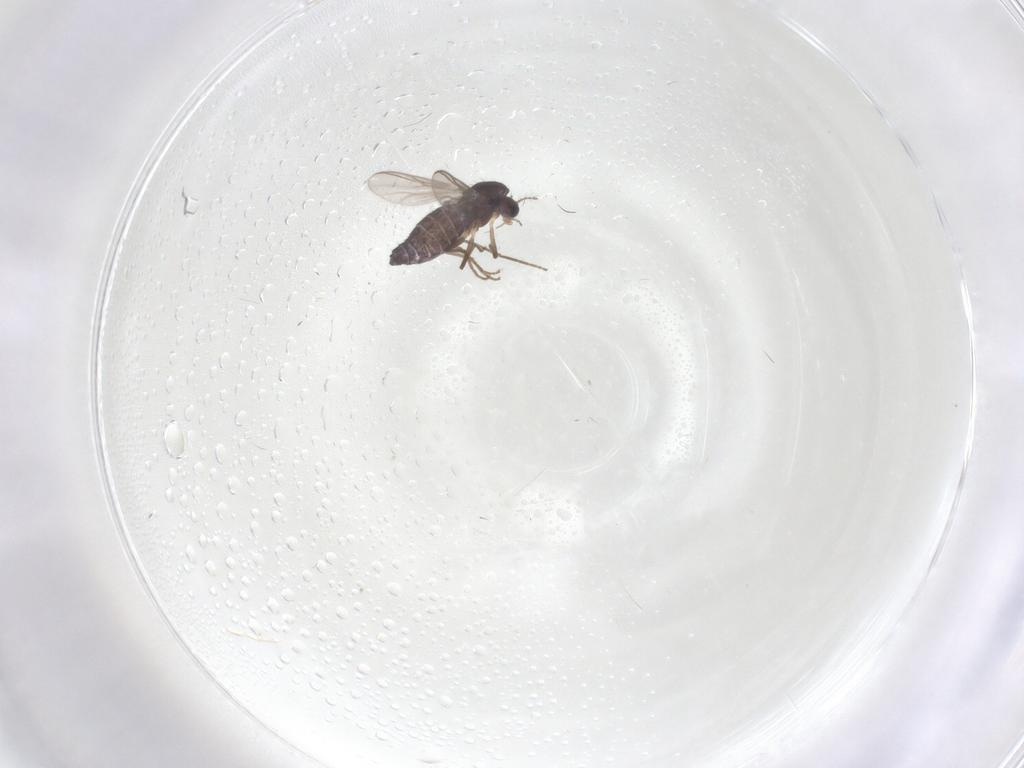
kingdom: Animalia
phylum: Arthropoda
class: Insecta
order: Diptera
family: Chironomidae
